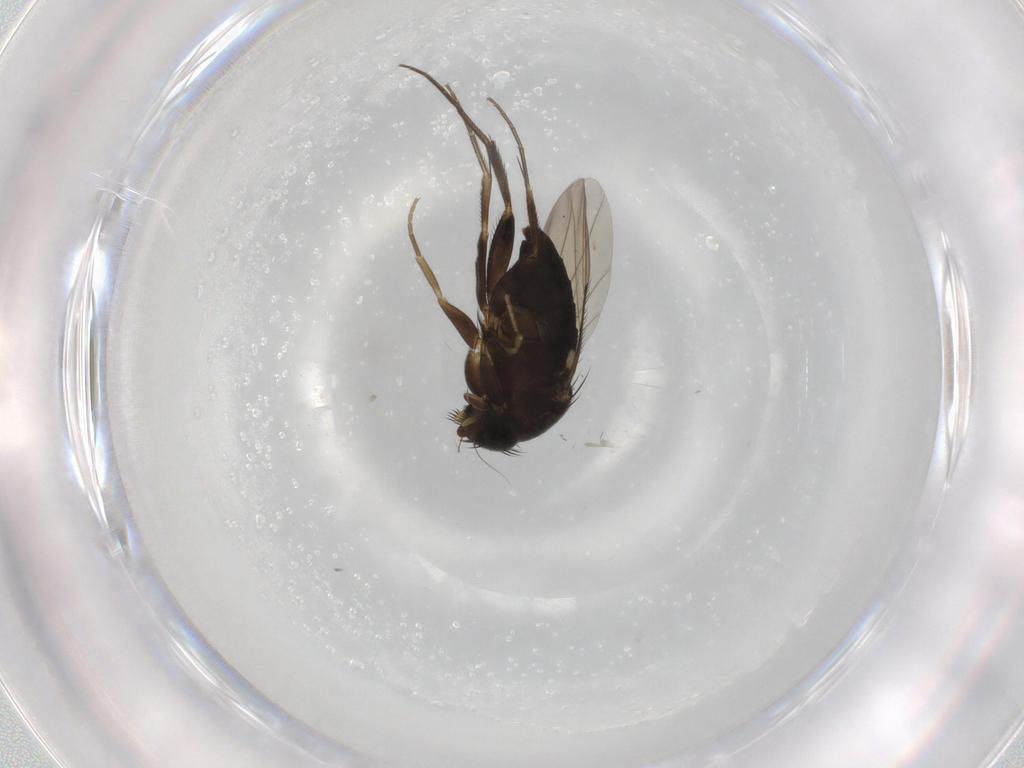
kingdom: Animalia
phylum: Arthropoda
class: Insecta
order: Diptera
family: Phoridae
